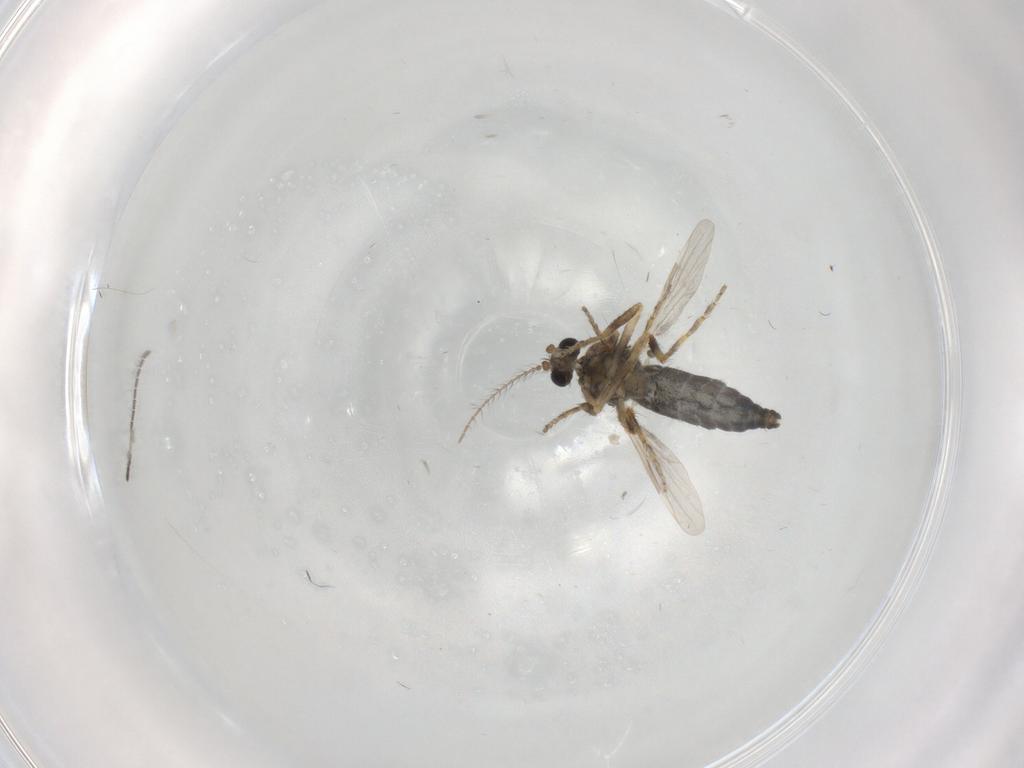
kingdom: Animalia
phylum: Arthropoda
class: Insecta
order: Diptera
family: Ceratopogonidae
